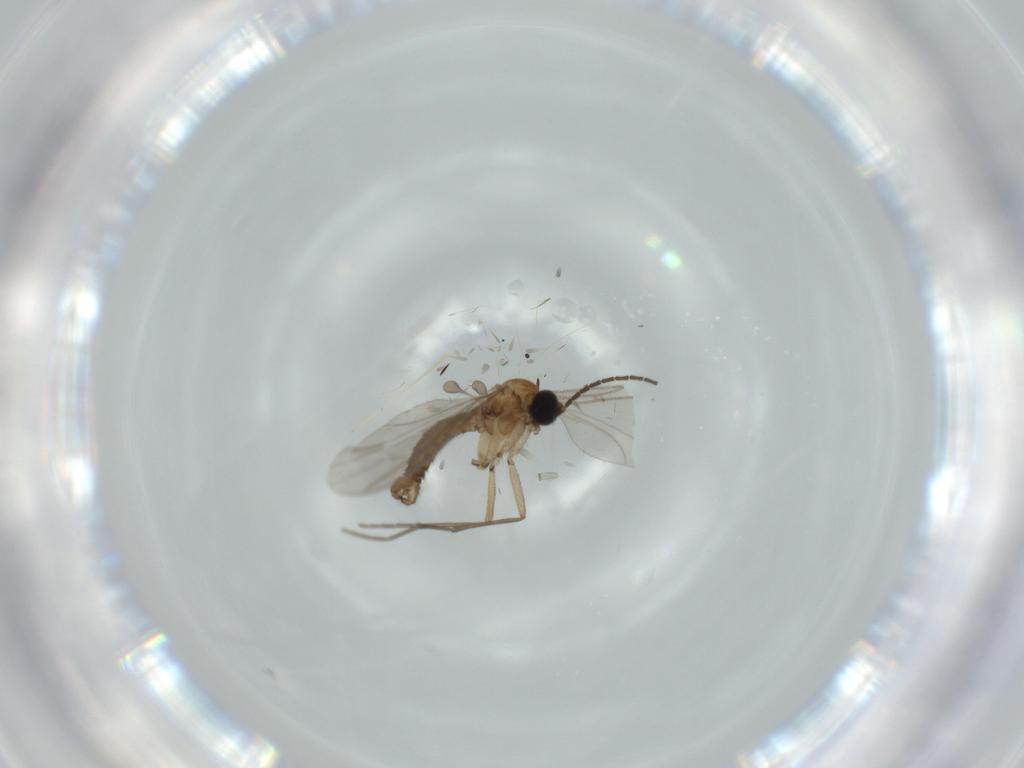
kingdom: Animalia
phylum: Arthropoda
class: Insecta
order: Diptera
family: Sciaridae
